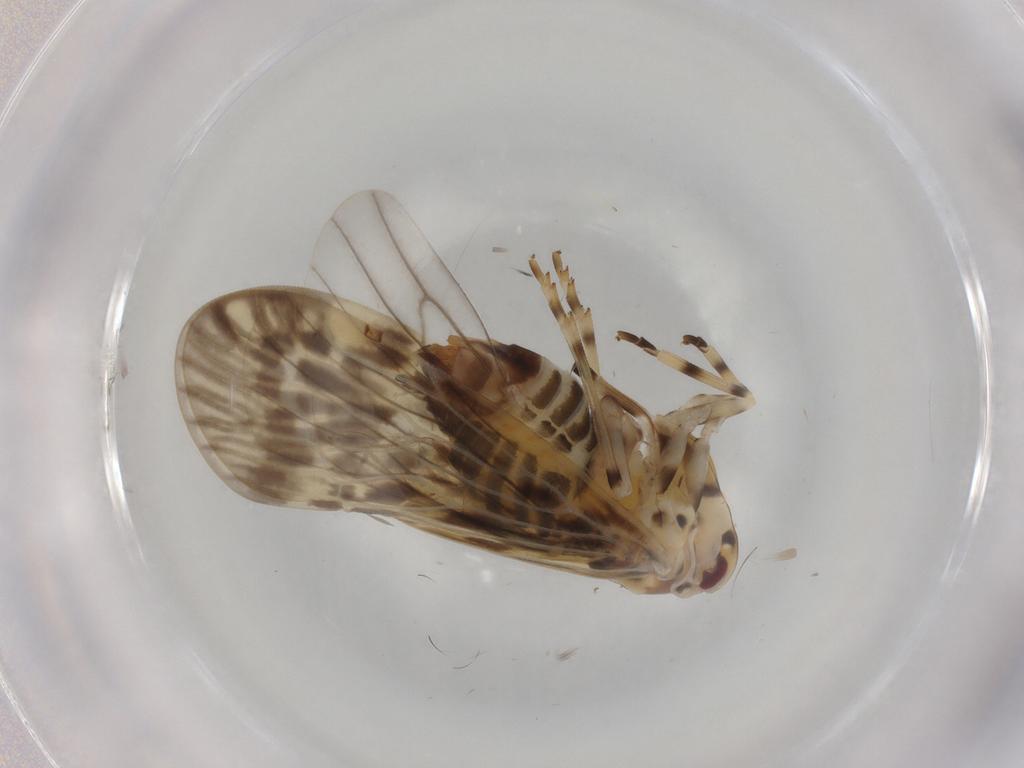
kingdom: Animalia
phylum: Arthropoda
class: Insecta
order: Hemiptera
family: Derbidae
